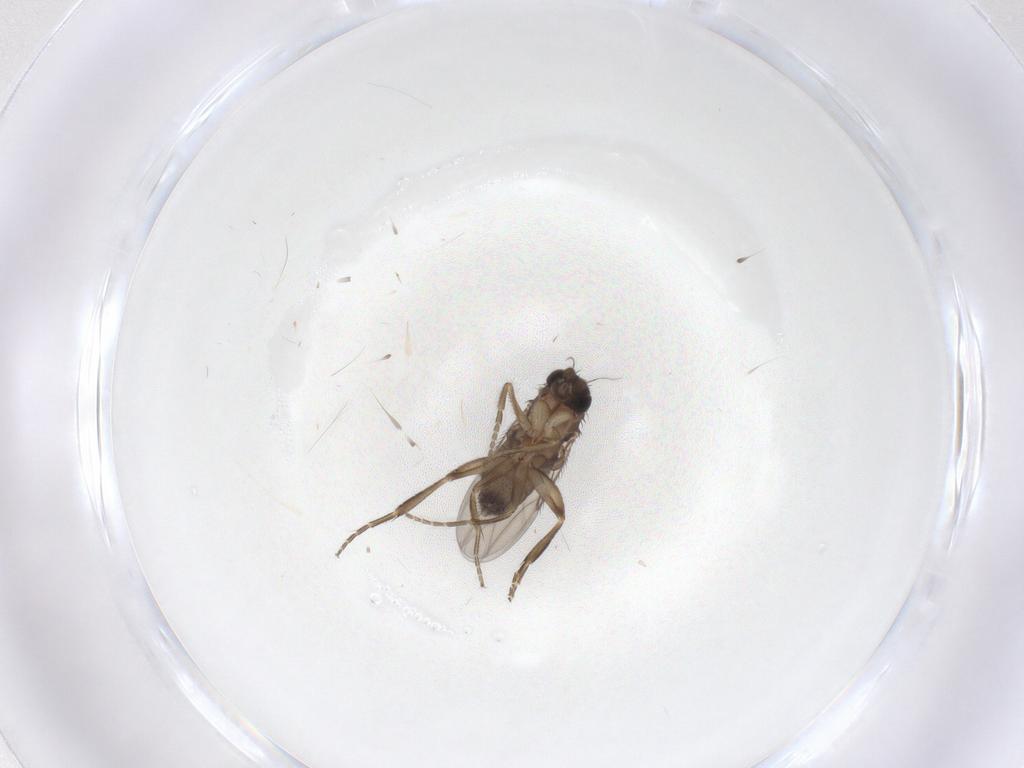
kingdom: Animalia
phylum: Arthropoda
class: Insecta
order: Diptera
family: Phoridae
